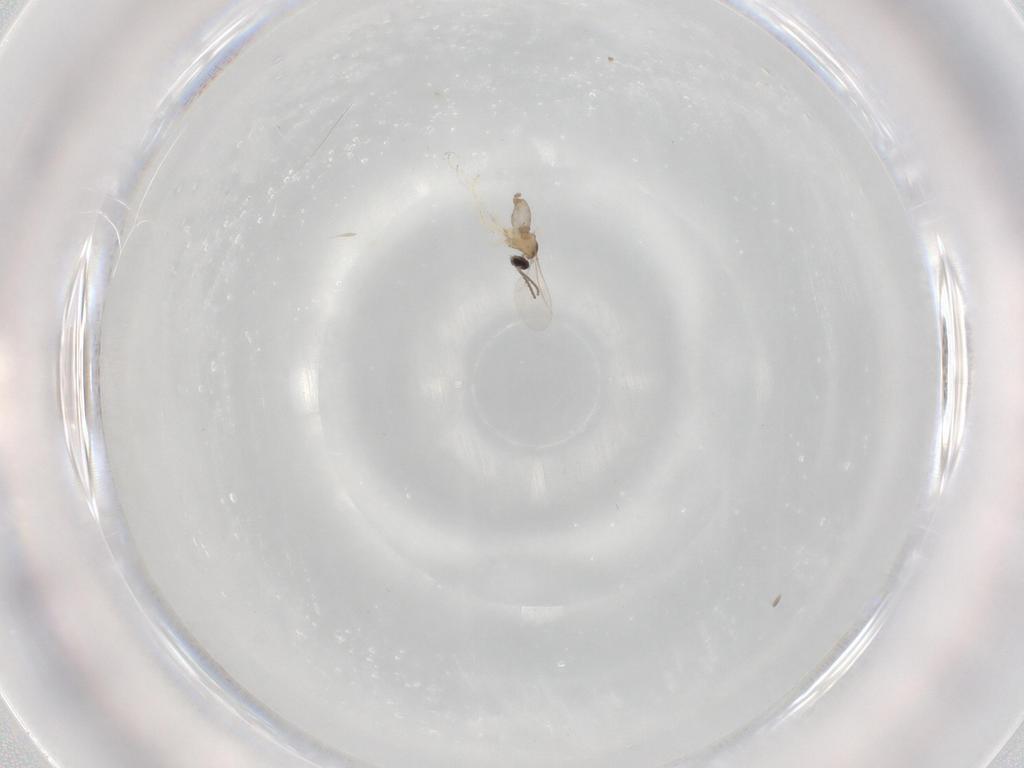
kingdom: Animalia
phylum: Arthropoda
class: Insecta
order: Diptera
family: Cecidomyiidae
